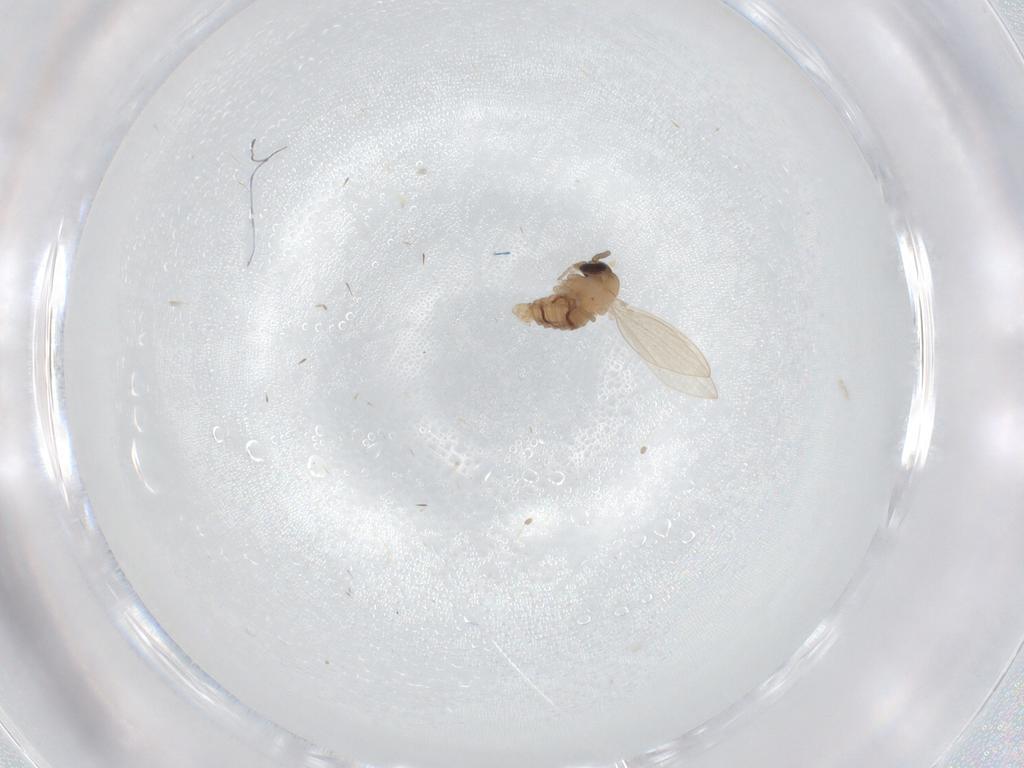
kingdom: Animalia
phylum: Arthropoda
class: Insecta
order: Diptera
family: Psychodidae
